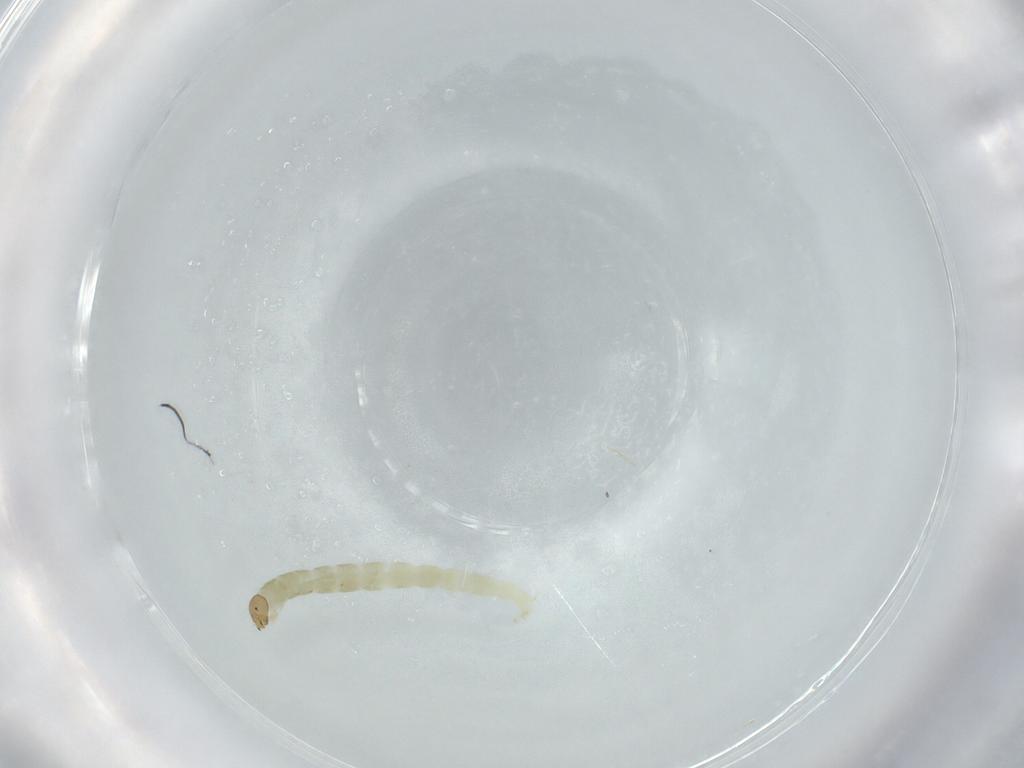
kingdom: Animalia
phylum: Arthropoda
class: Insecta
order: Diptera
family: Chironomidae
